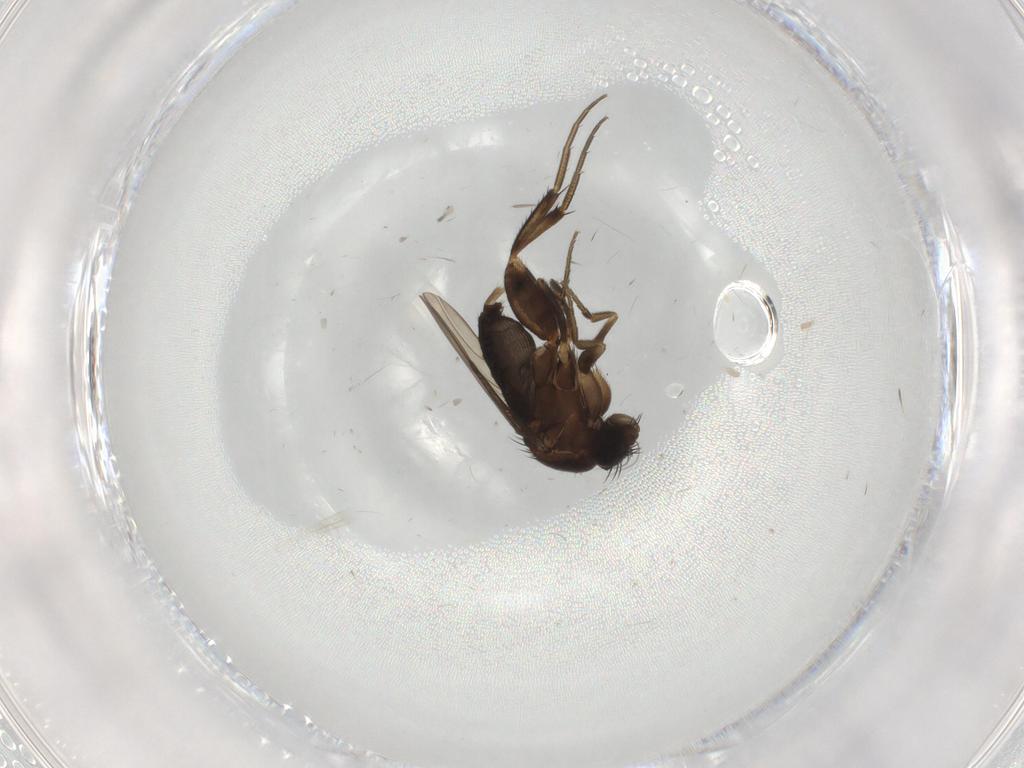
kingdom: Animalia
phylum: Arthropoda
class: Insecta
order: Diptera
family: Phoridae
